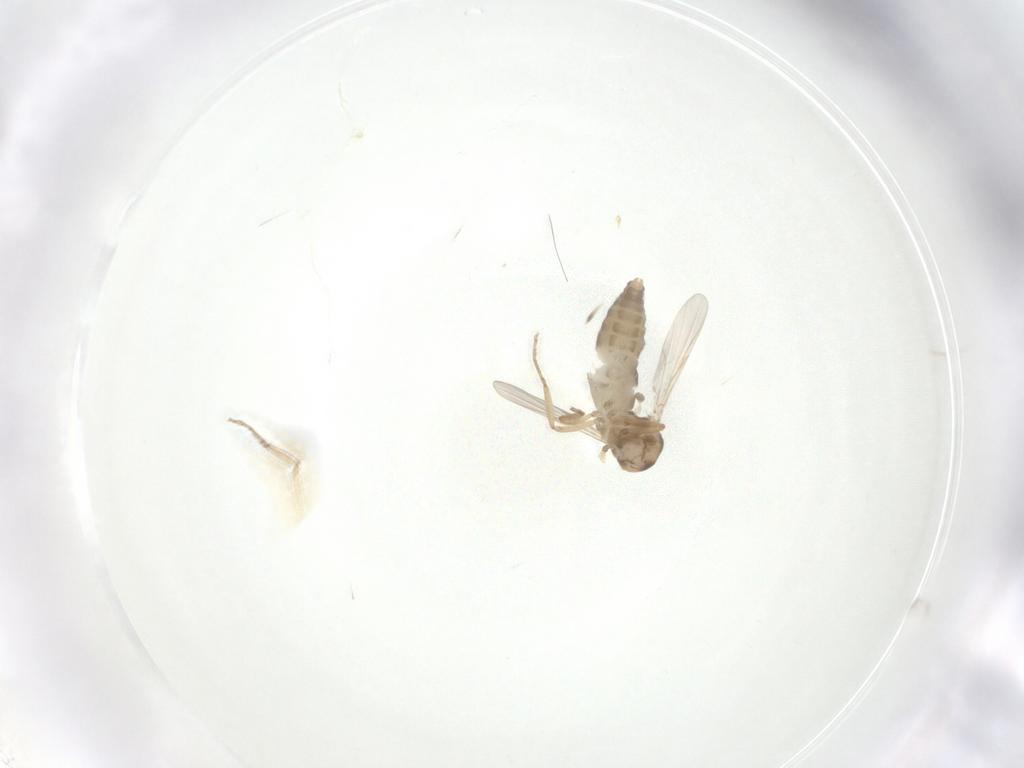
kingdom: Animalia
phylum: Arthropoda
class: Insecta
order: Diptera
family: Ceratopogonidae
